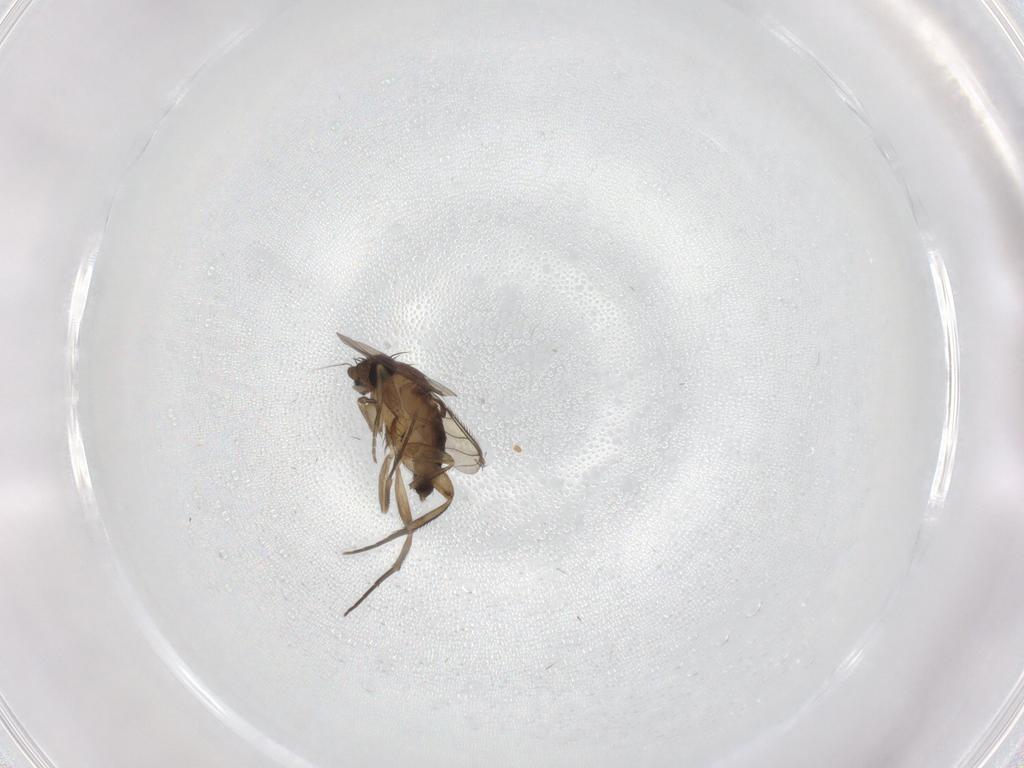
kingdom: Animalia
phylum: Arthropoda
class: Insecta
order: Diptera
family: Phoridae
